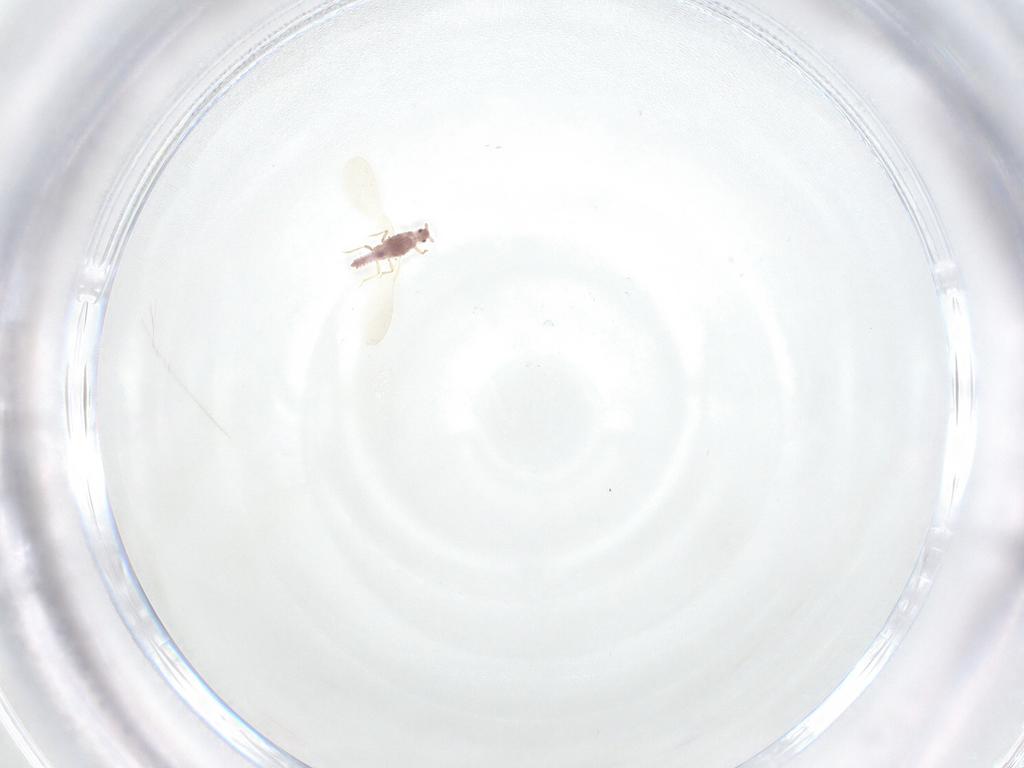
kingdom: Animalia
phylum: Arthropoda
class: Insecta
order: Hemiptera
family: Pseudococcidae
